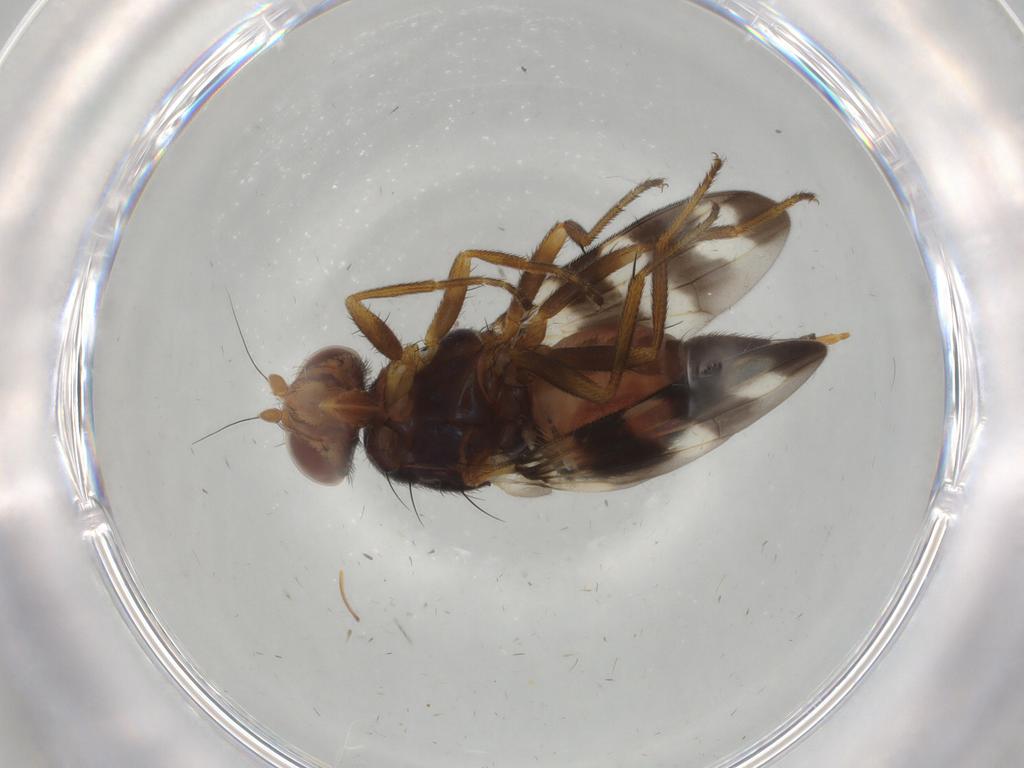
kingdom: Animalia
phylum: Arthropoda
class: Insecta
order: Diptera
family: Ulidiidae
